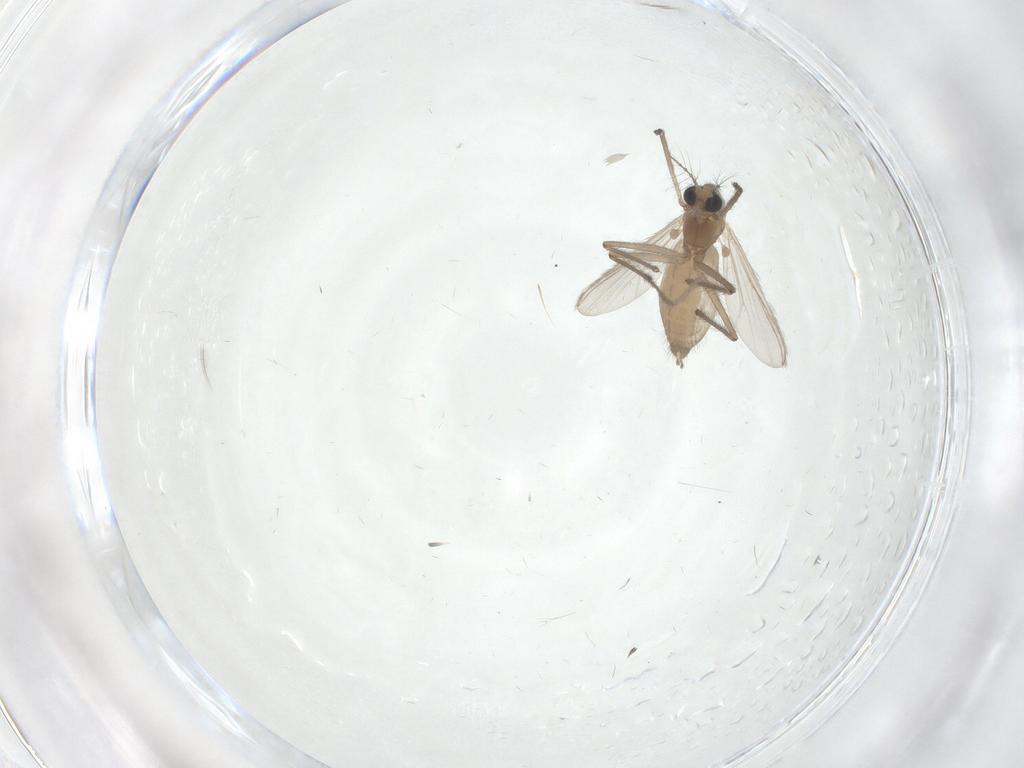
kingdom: Animalia
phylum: Arthropoda
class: Insecta
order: Diptera
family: Chironomidae
